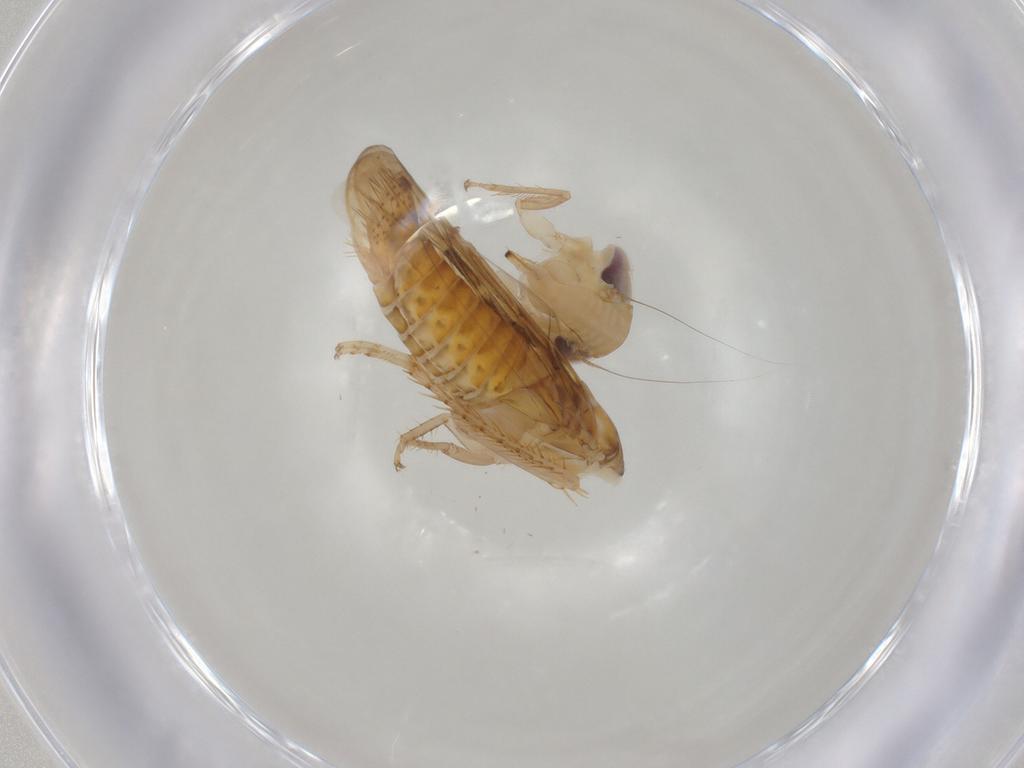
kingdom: Animalia
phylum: Arthropoda
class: Insecta
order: Hemiptera
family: Cicadellidae
